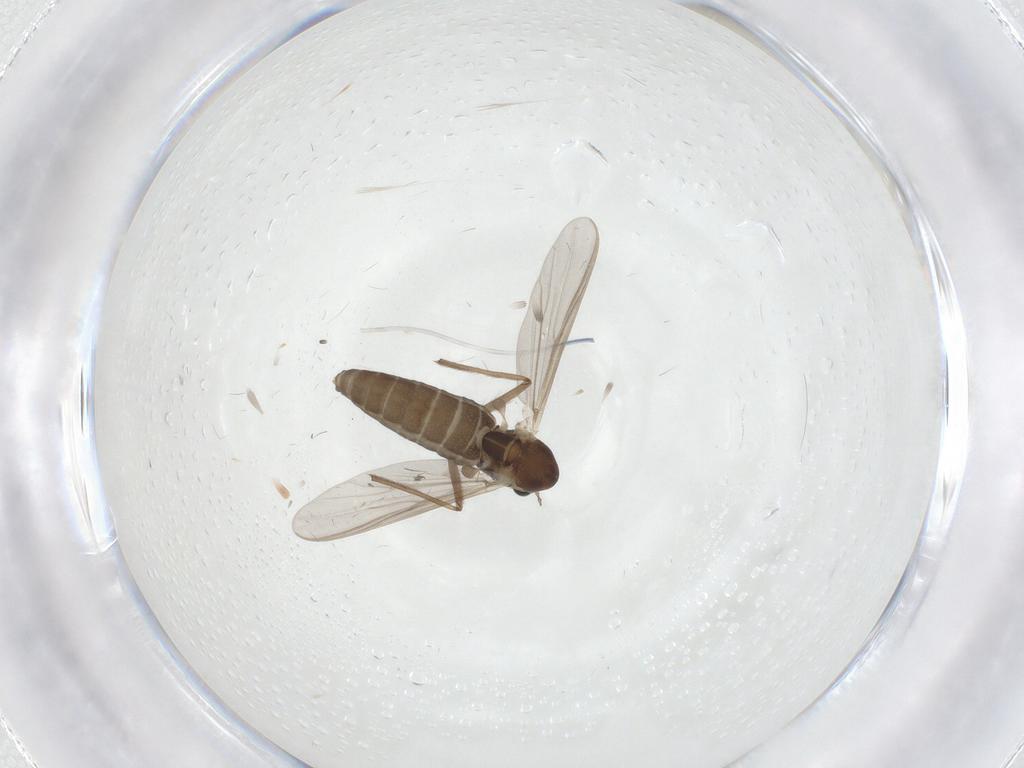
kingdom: Animalia
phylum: Arthropoda
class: Insecta
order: Diptera
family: Chironomidae
